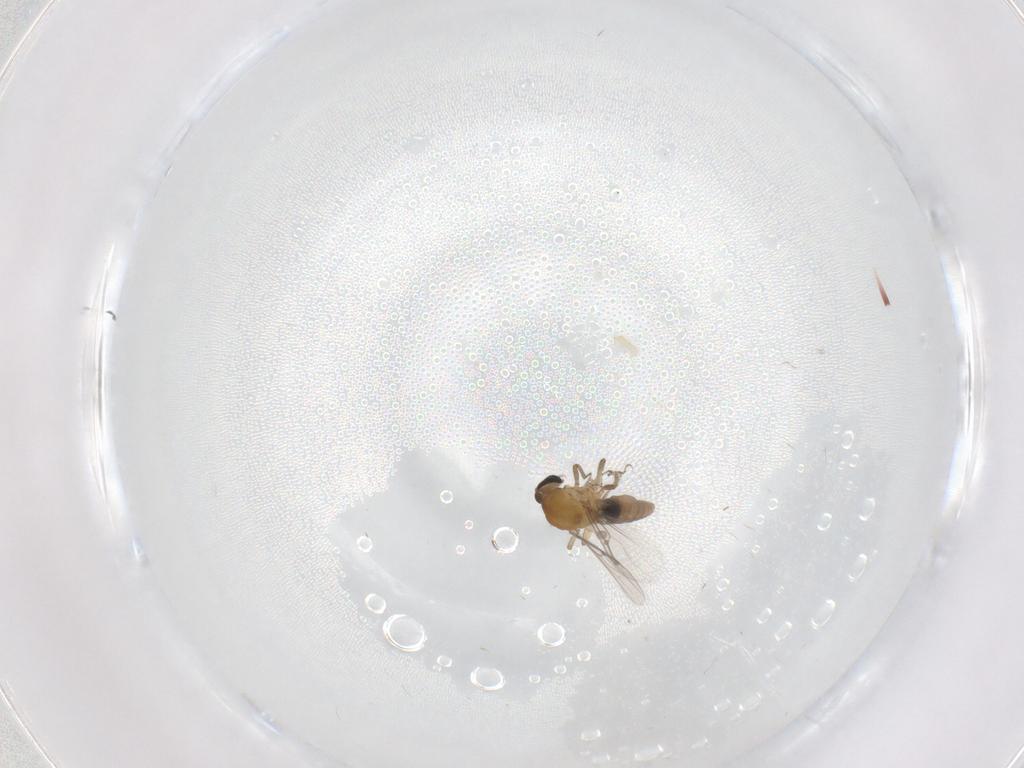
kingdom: Animalia
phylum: Arthropoda
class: Insecta
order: Diptera
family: Cecidomyiidae
